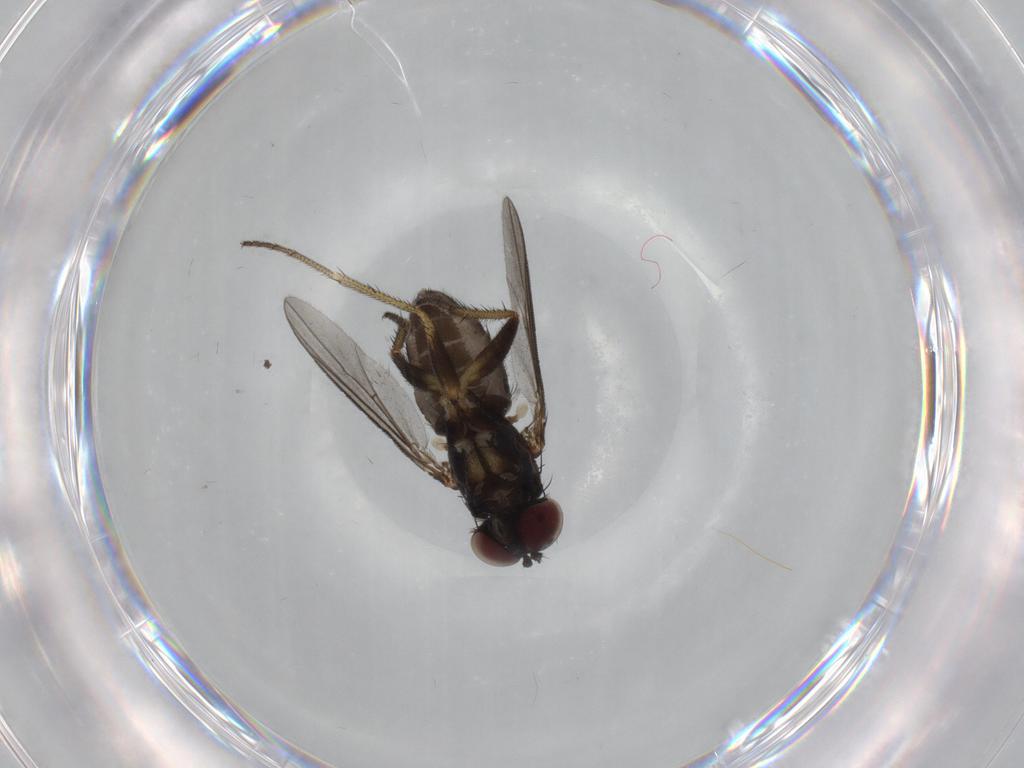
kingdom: Animalia
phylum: Arthropoda
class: Insecta
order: Diptera
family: Dolichopodidae
